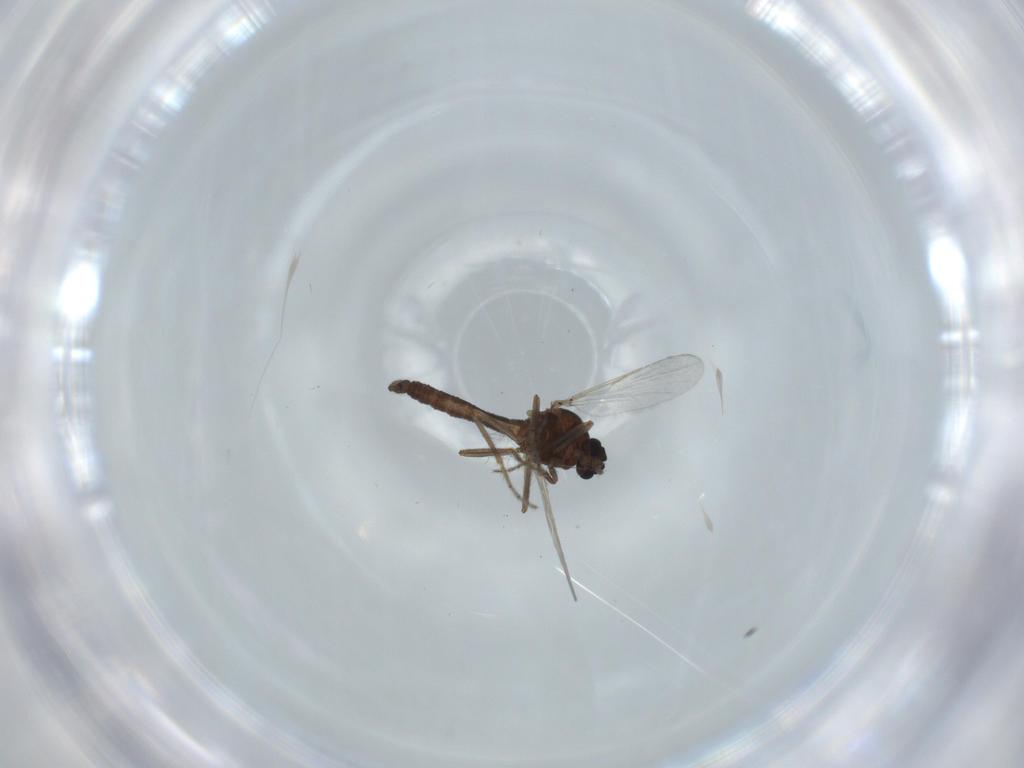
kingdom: Animalia
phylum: Arthropoda
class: Insecta
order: Diptera
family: Ceratopogonidae
